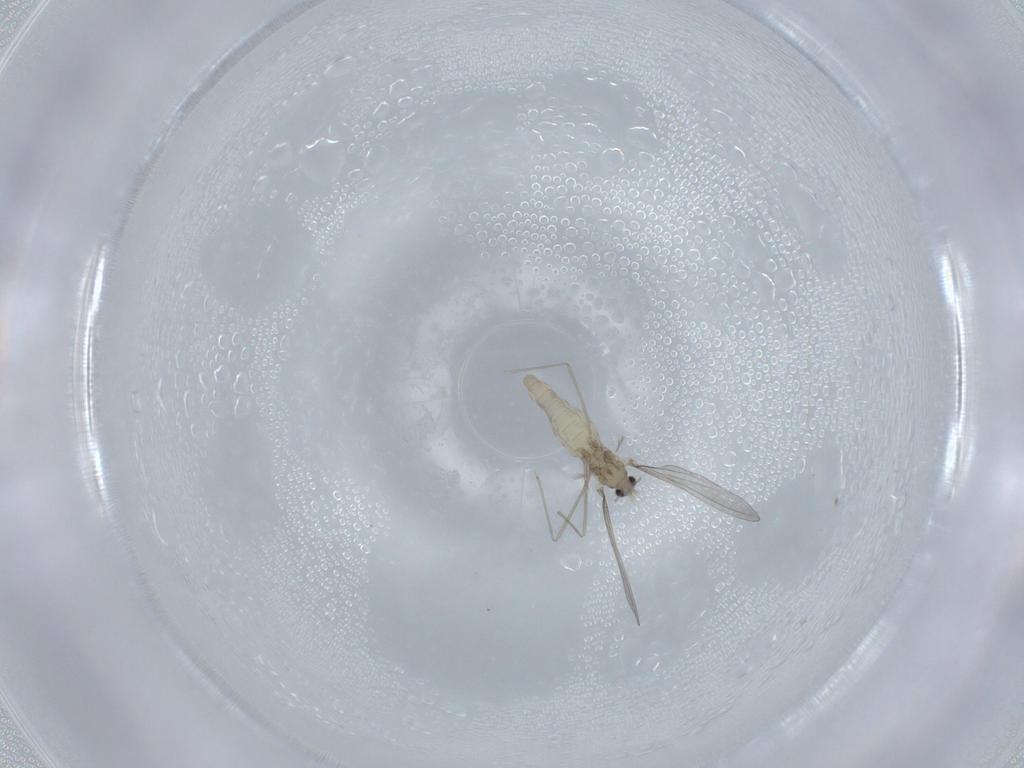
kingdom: Animalia
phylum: Arthropoda
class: Insecta
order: Diptera
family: Cecidomyiidae
